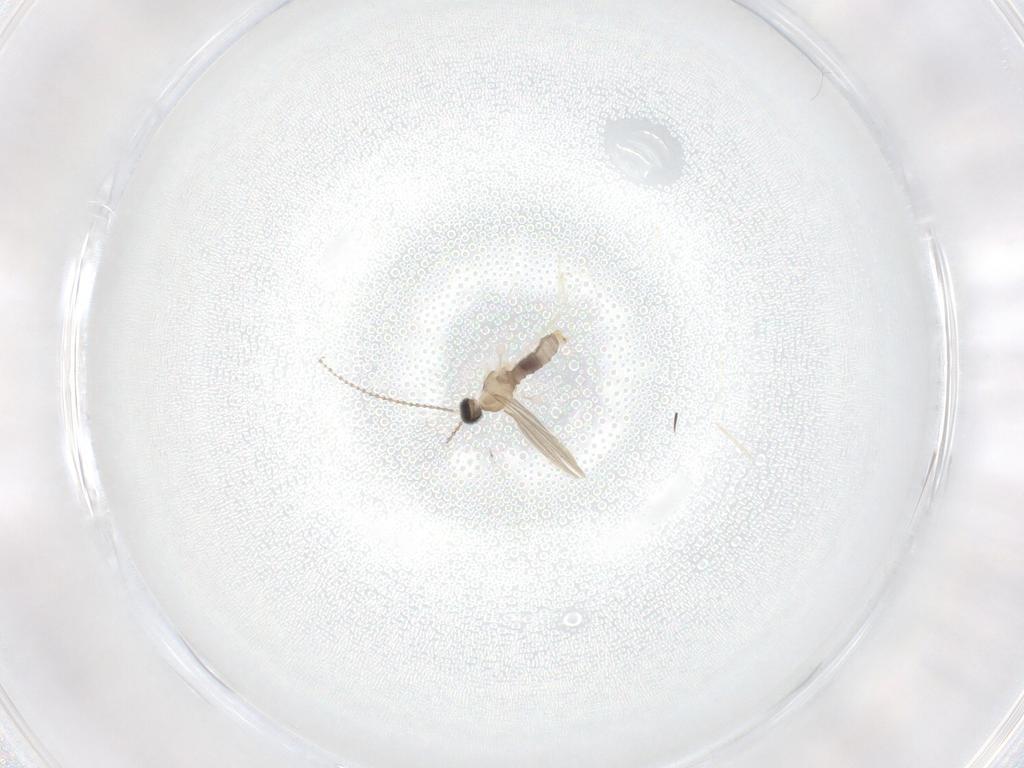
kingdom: Animalia
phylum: Arthropoda
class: Insecta
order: Diptera
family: Cecidomyiidae
